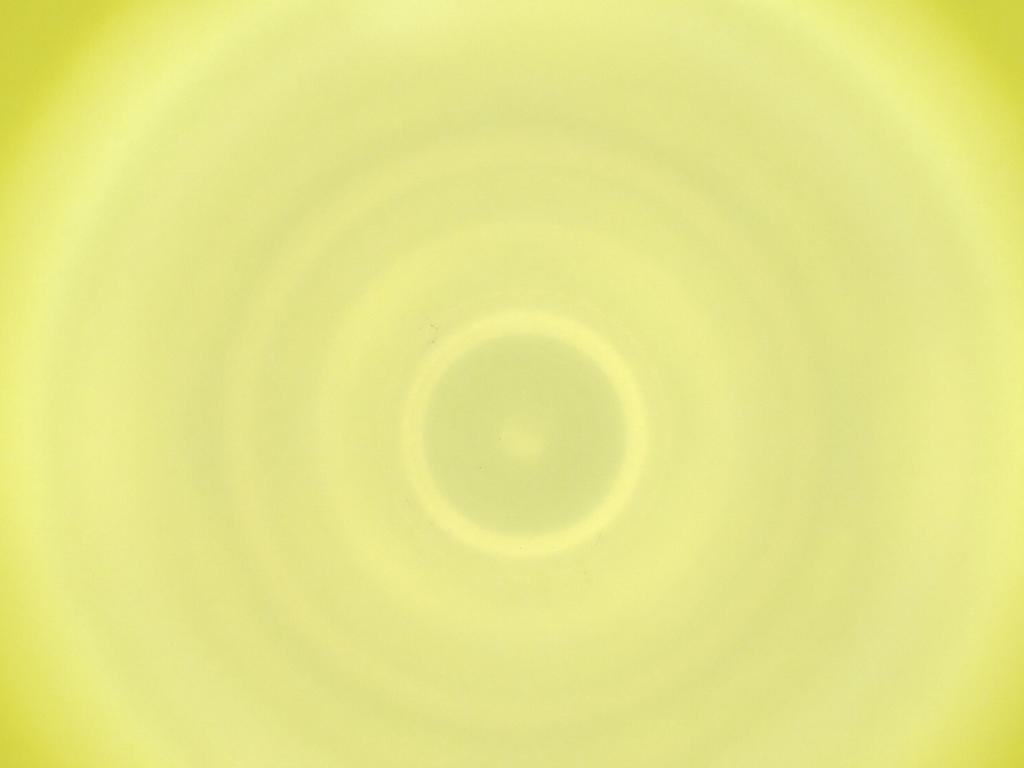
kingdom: Animalia
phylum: Arthropoda
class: Insecta
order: Diptera
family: Cecidomyiidae
